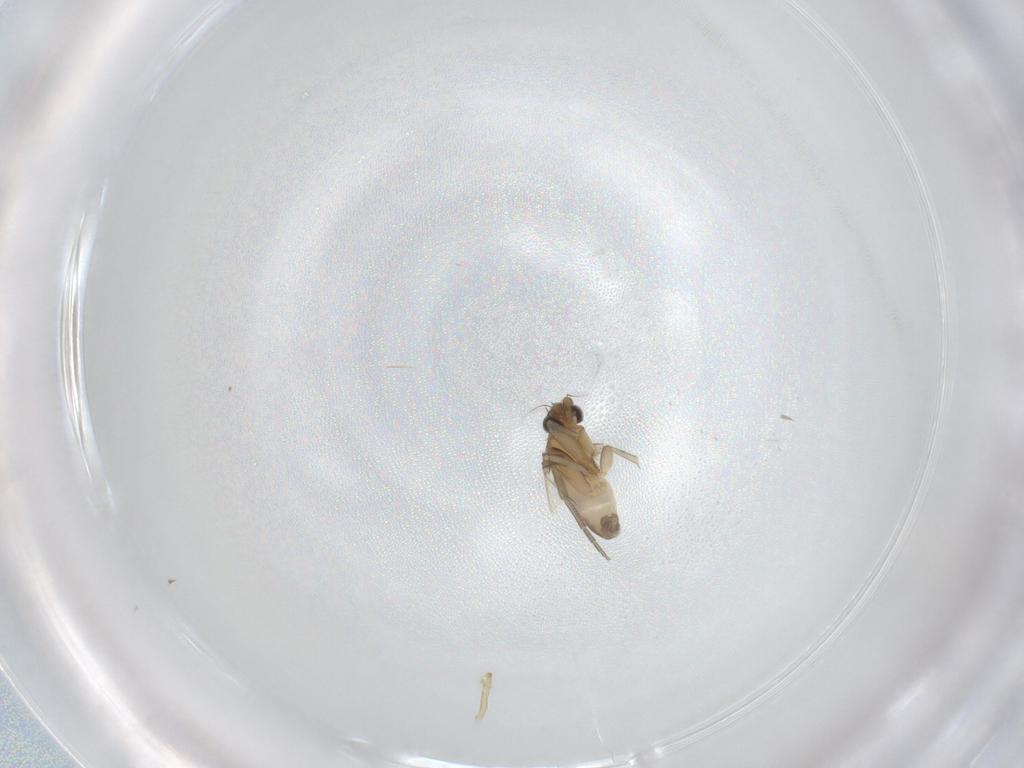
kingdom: Animalia
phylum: Arthropoda
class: Insecta
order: Diptera
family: Phoridae
